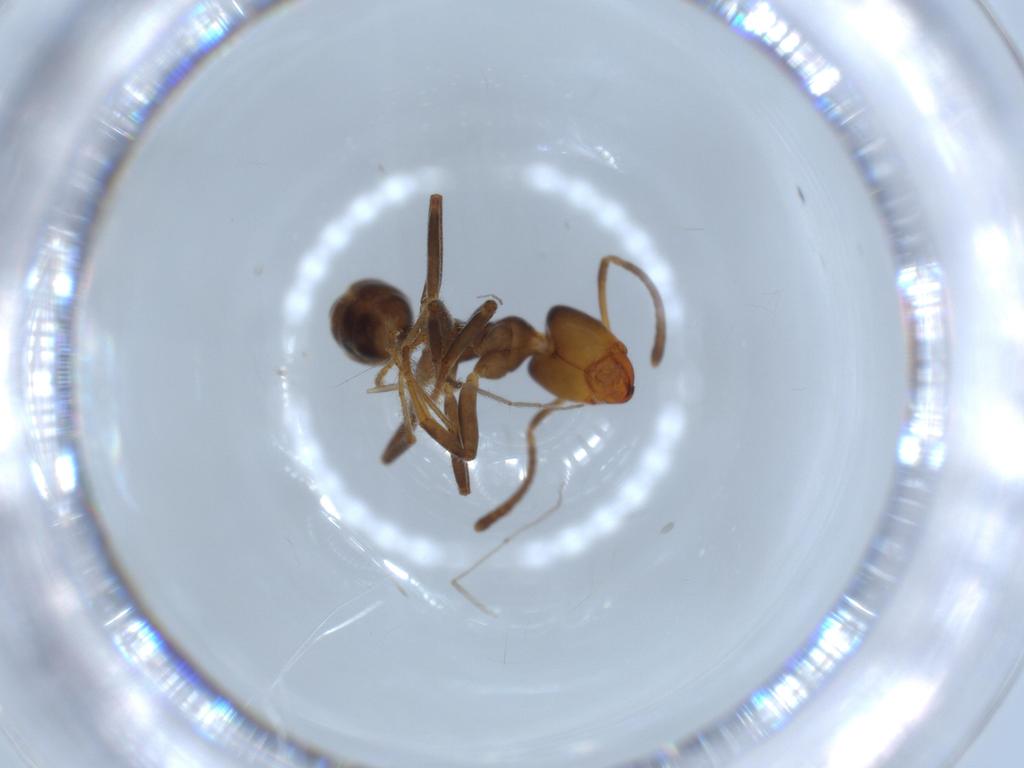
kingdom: Animalia
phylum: Arthropoda
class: Insecta
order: Hymenoptera
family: Formicidae
